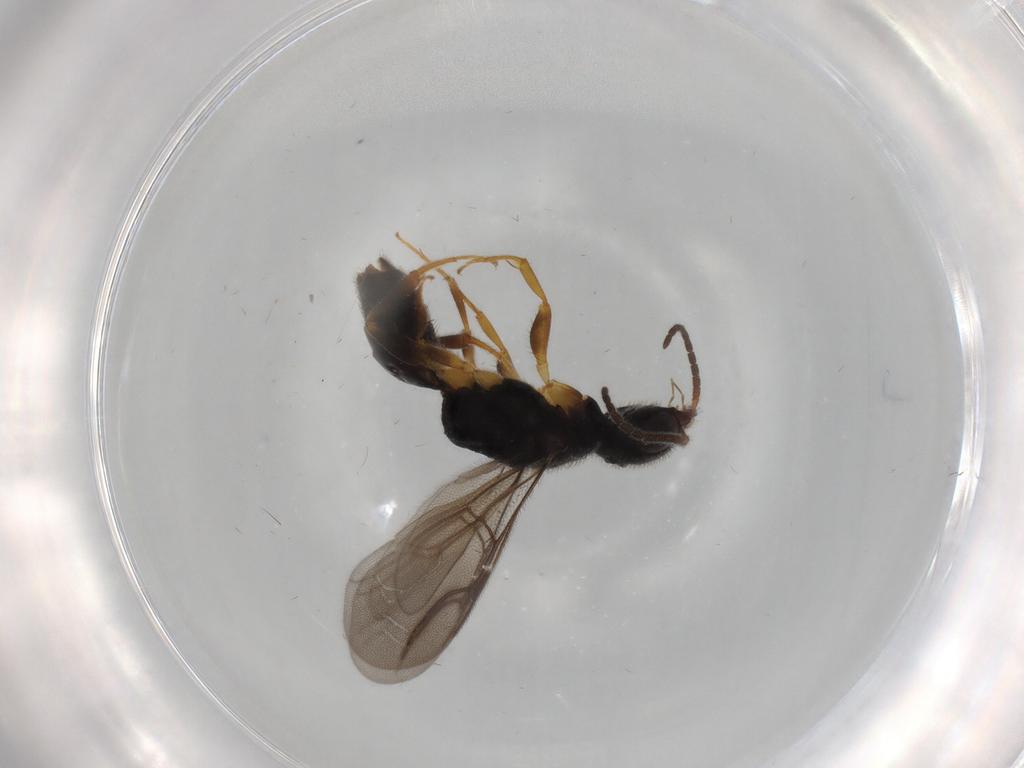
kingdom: Animalia
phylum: Arthropoda
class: Insecta
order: Hymenoptera
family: Bethylidae
